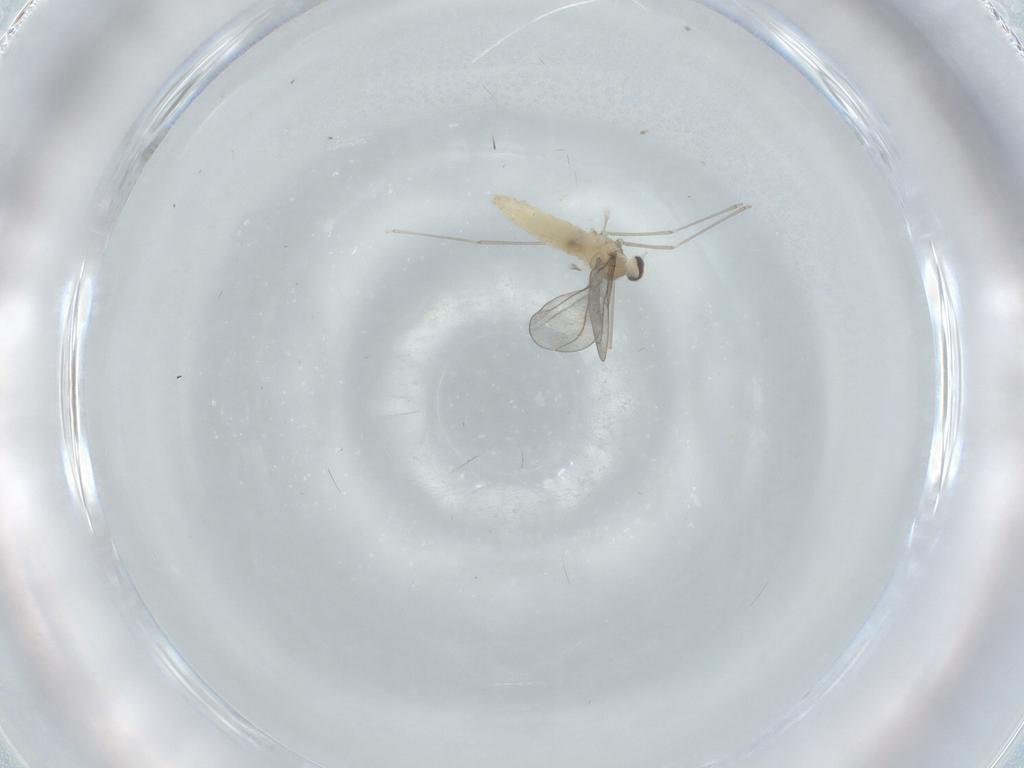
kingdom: Animalia
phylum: Arthropoda
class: Insecta
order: Diptera
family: Cecidomyiidae
